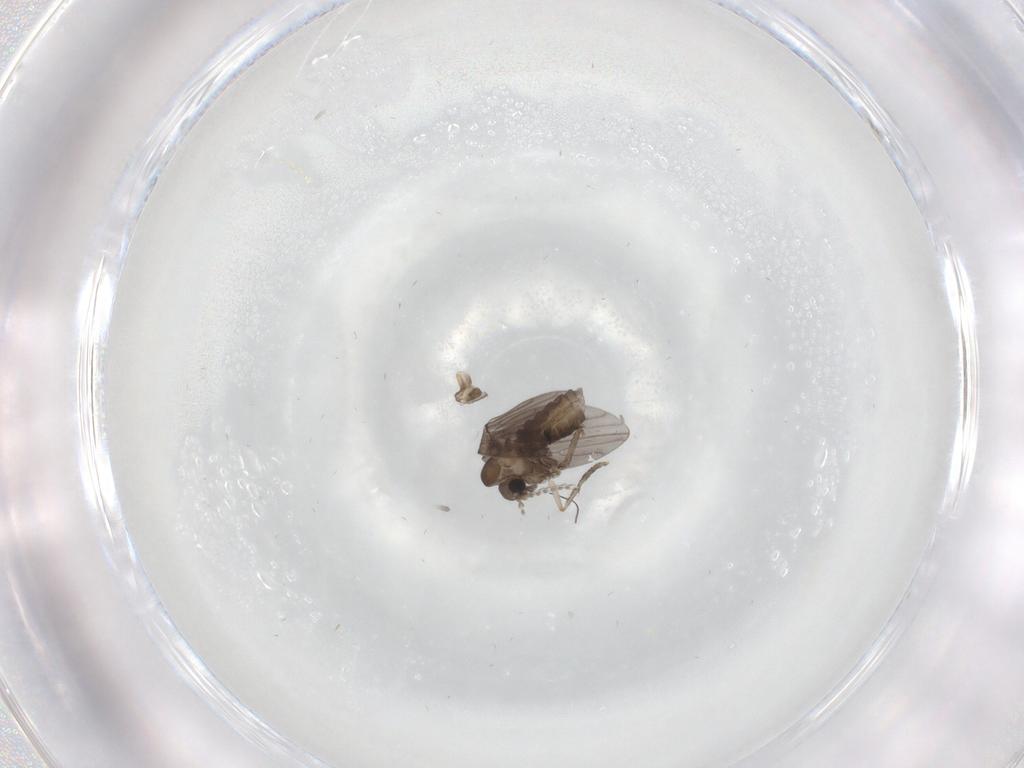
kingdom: Animalia
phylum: Arthropoda
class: Insecta
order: Diptera
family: Psychodidae
